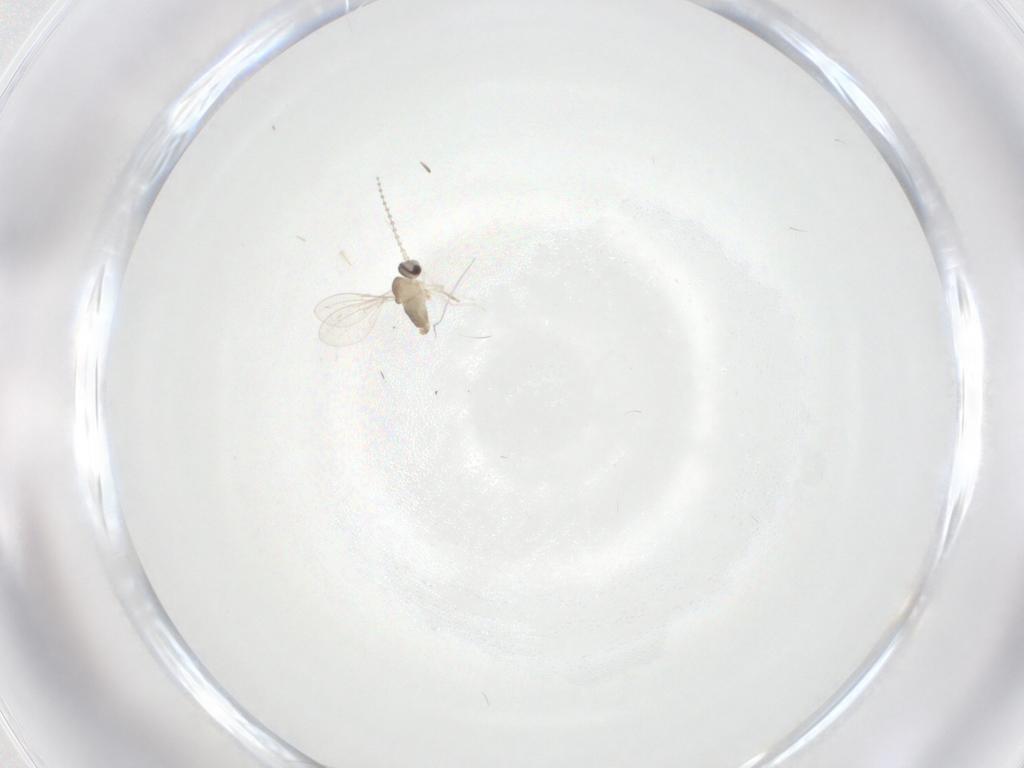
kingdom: Animalia
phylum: Arthropoda
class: Insecta
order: Diptera
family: Cecidomyiidae
